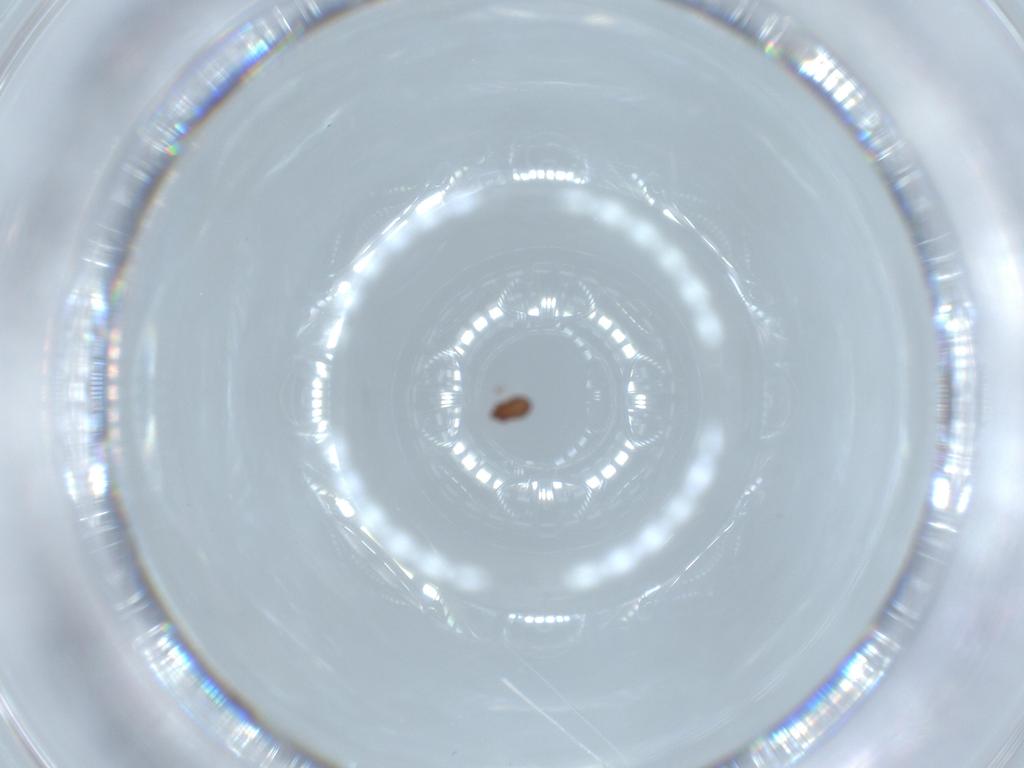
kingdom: Animalia
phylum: Arthropoda
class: Arachnida
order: Sarcoptiformes
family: Oripodidae
